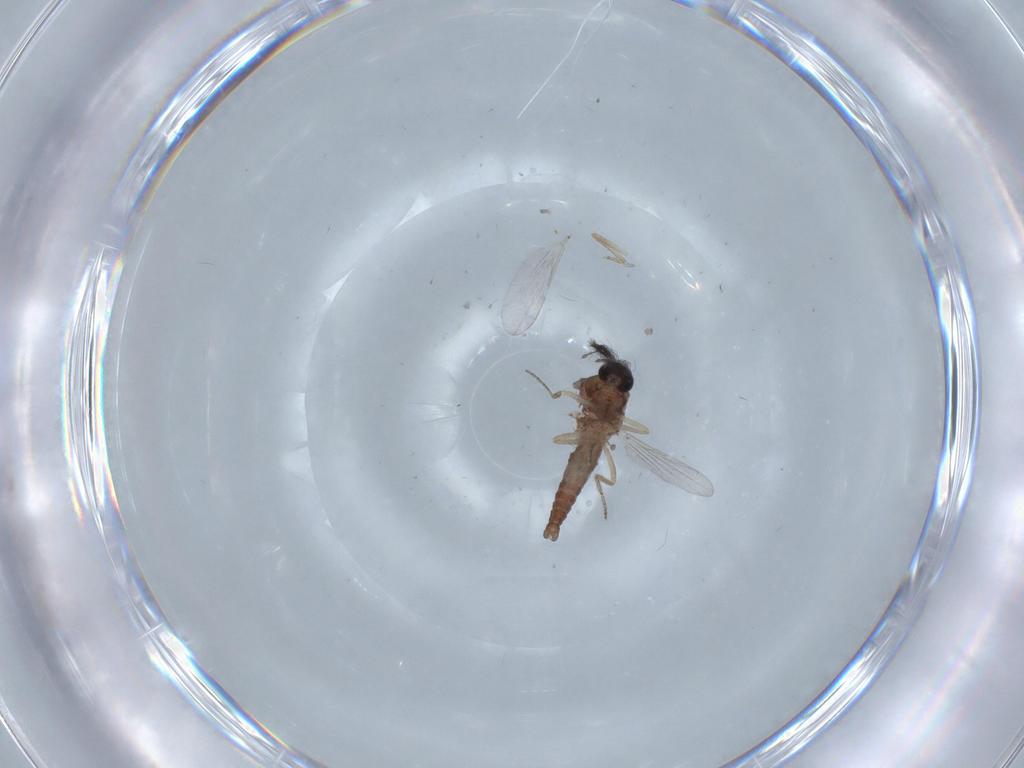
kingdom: Animalia
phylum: Arthropoda
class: Insecta
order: Diptera
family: Ceratopogonidae
